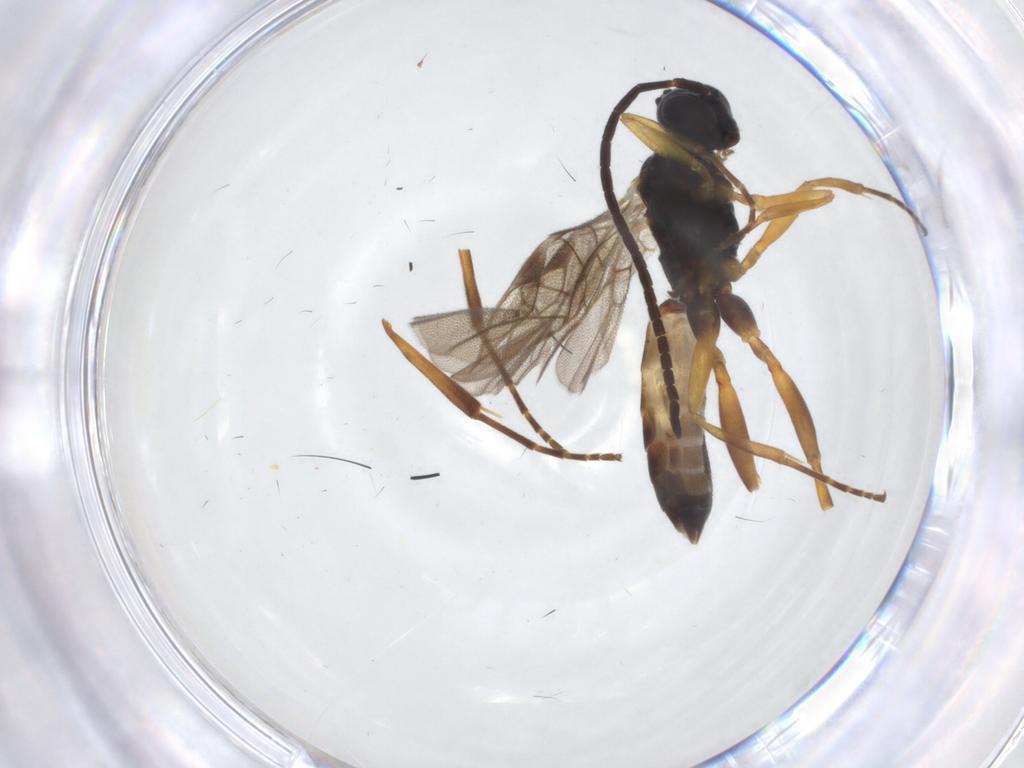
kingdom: Animalia
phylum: Arthropoda
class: Insecta
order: Hymenoptera
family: Ichneumonidae
